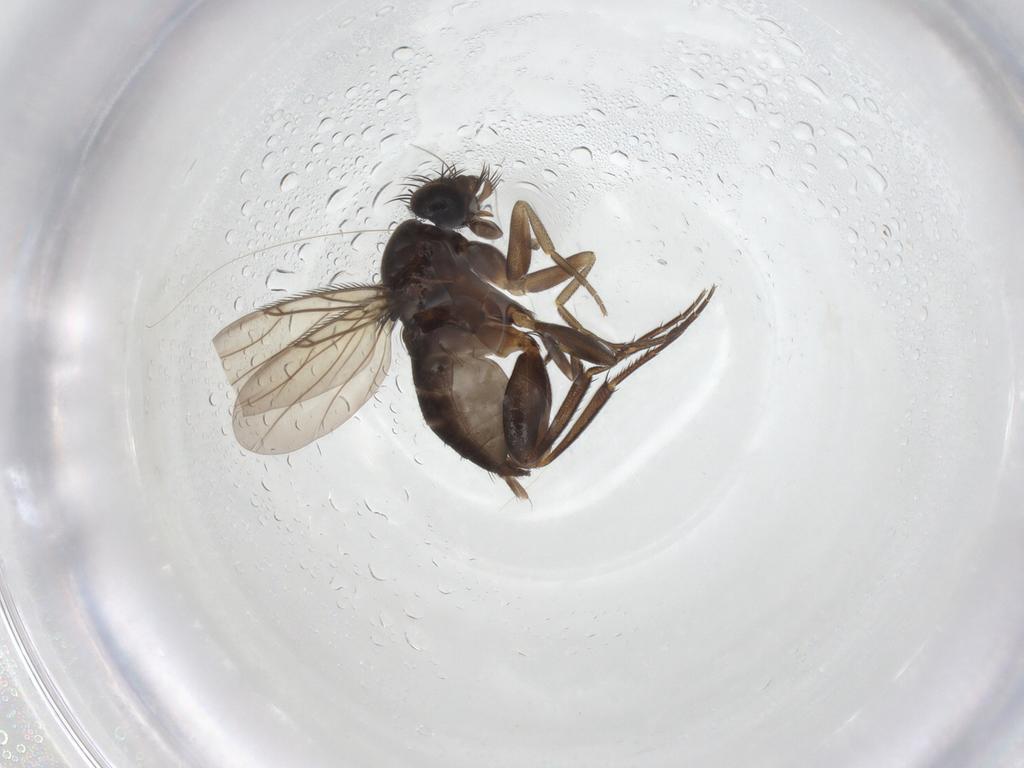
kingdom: Animalia
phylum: Arthropoda
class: Insecta
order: Diptera
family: Phoridae
